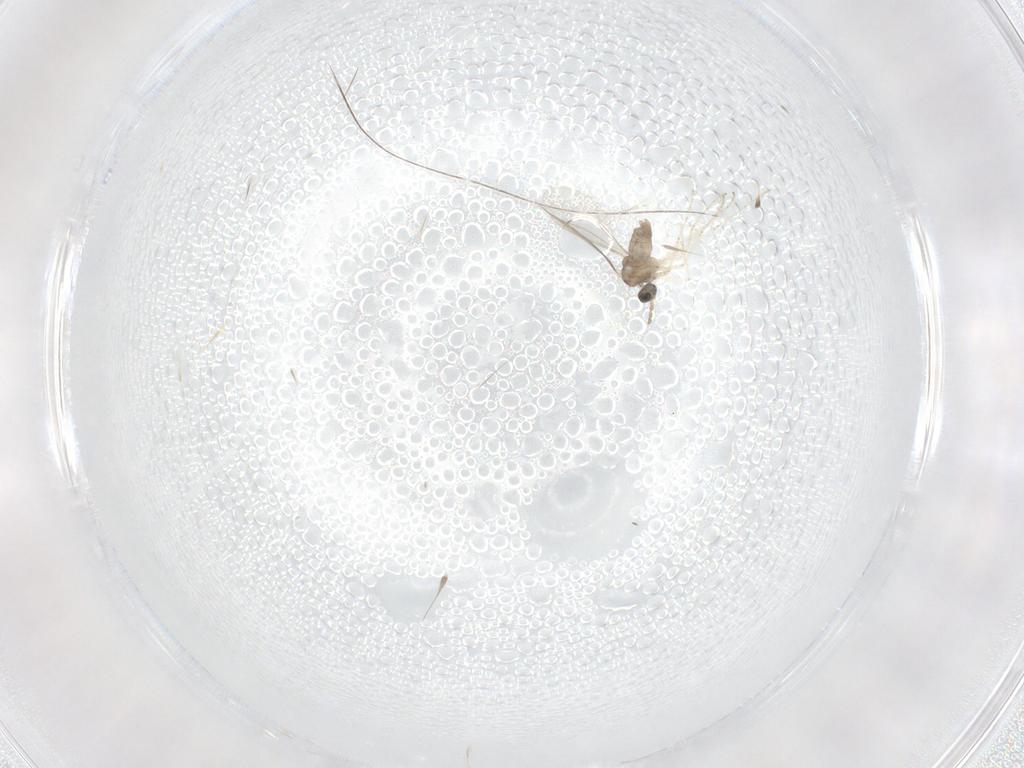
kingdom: Animalia
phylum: Arthropoda
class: Insecta
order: Diptera
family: Cecidomyiidae
